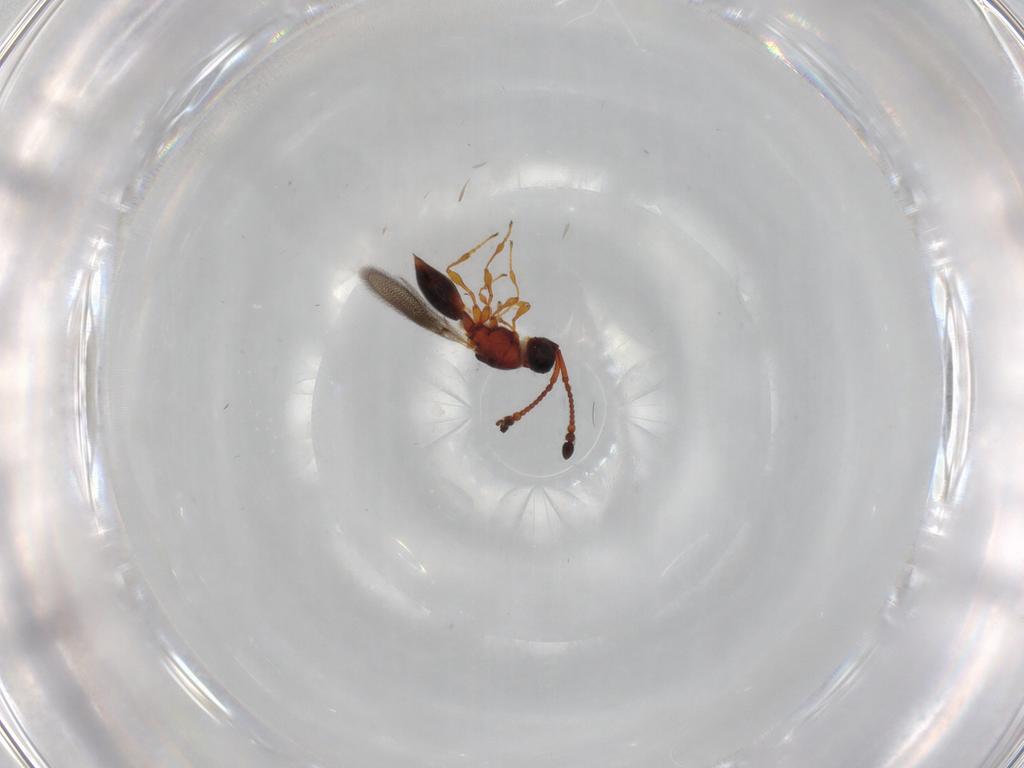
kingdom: Animalia
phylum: Arthropoda
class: Insecta
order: Hymenoptera
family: Diapriidae
